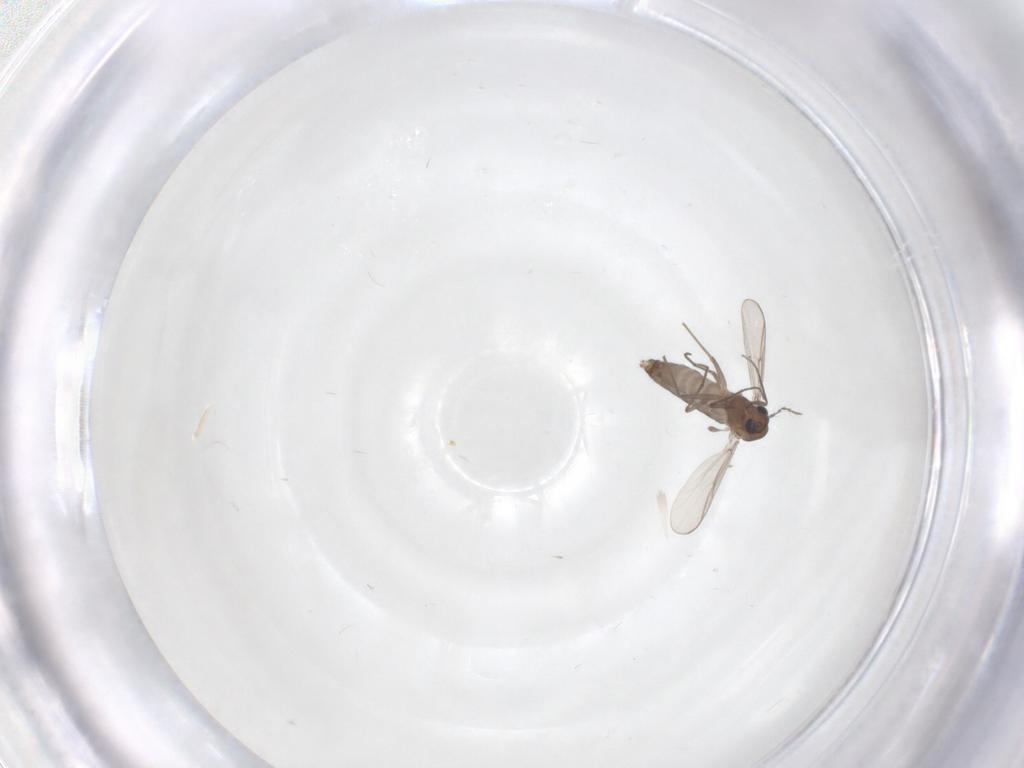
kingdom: Animalia
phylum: Arthropoda
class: Insecta
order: Diptera
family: Chironomidae
